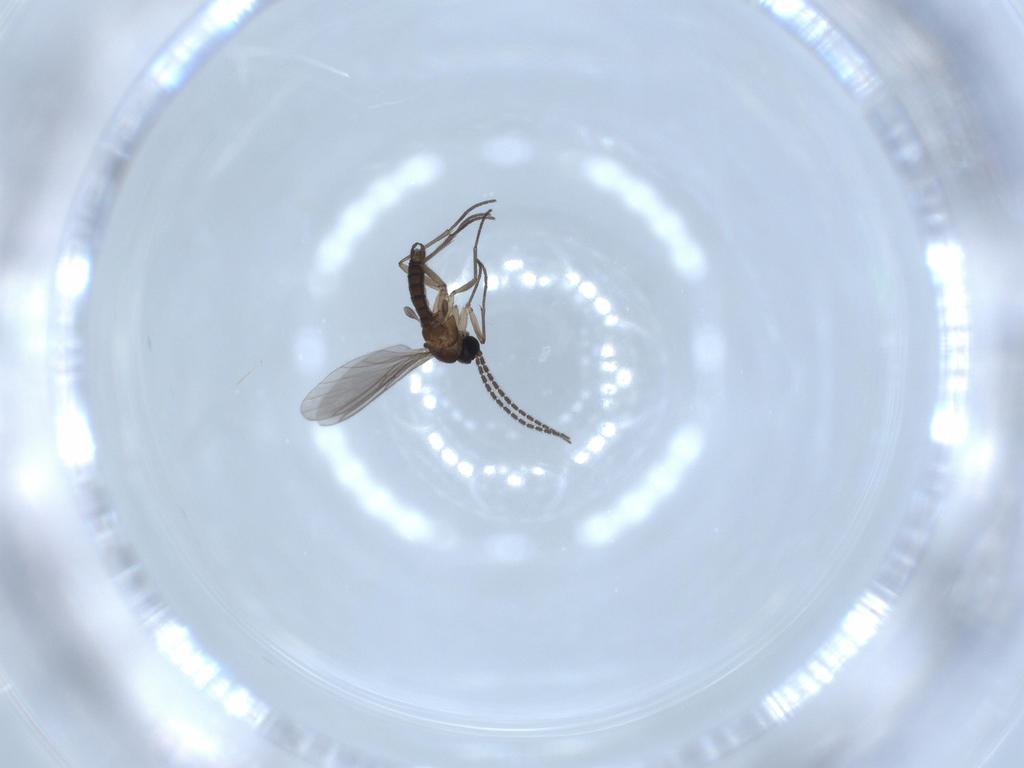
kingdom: Animalia
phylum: Arthropoda
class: Insecta
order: Diptera
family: Sciaridae
